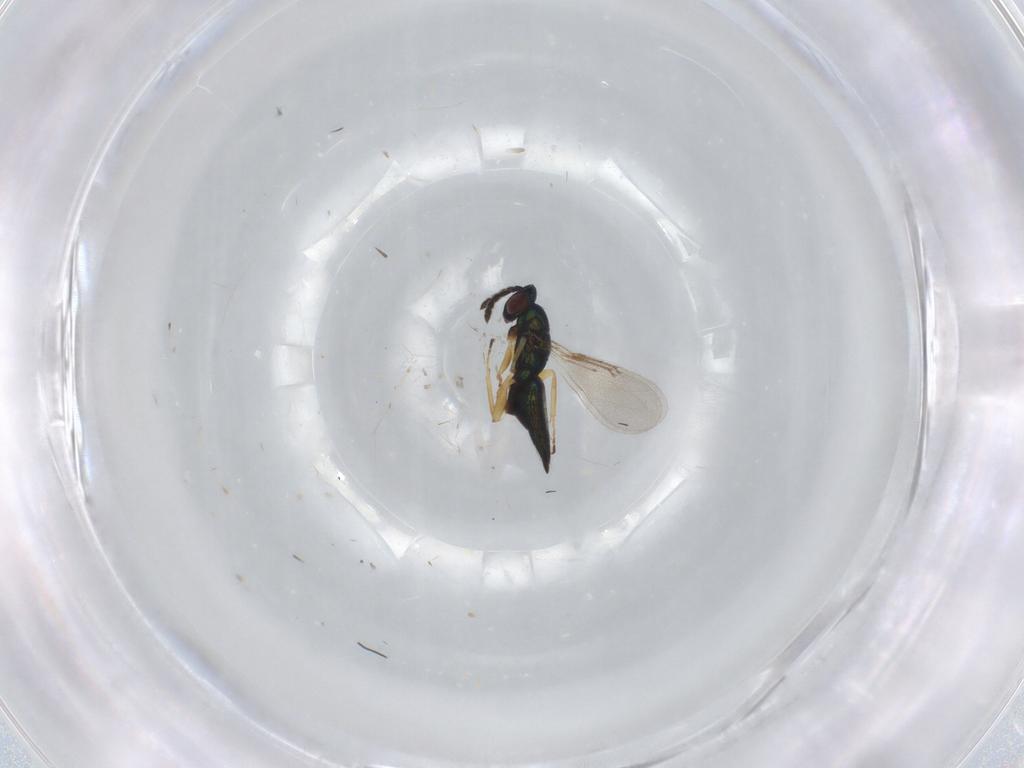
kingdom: Animalia
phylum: Arthropoda
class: Insecta
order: Hymenoptera
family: Eulophidae
